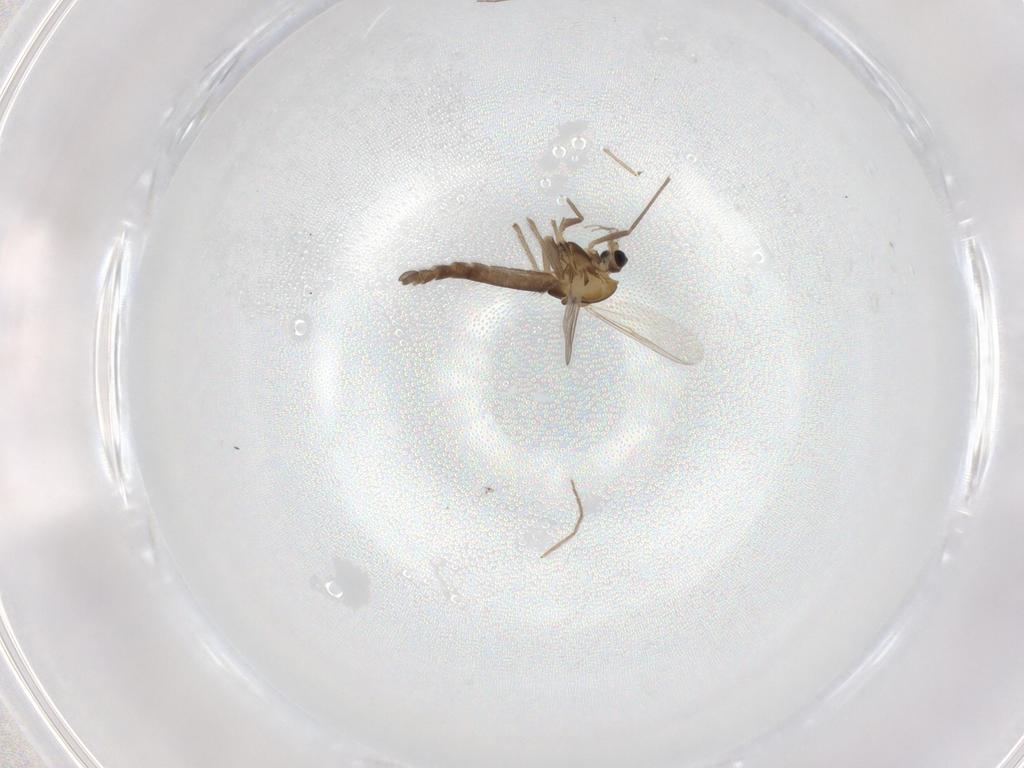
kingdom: Animalia
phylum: Arthropoda
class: Insecta
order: Diptera
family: Chironomidae
